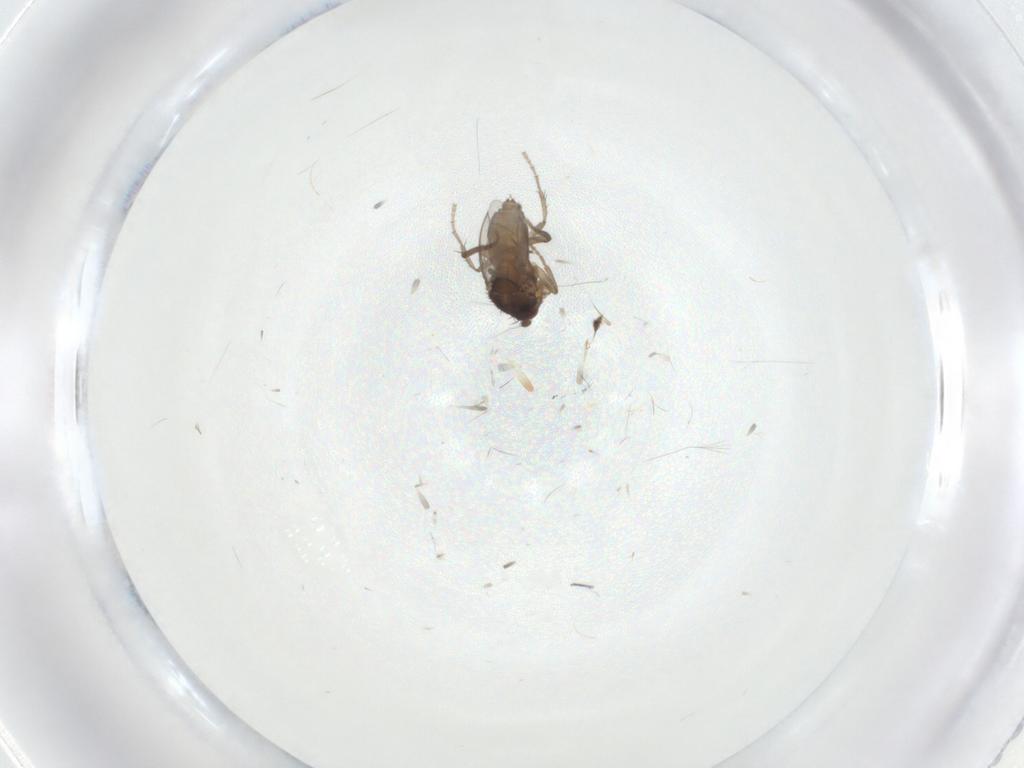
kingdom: Animalia
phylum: Arthropoda
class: Insecta
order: Diptera
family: Sphaeroceridae
